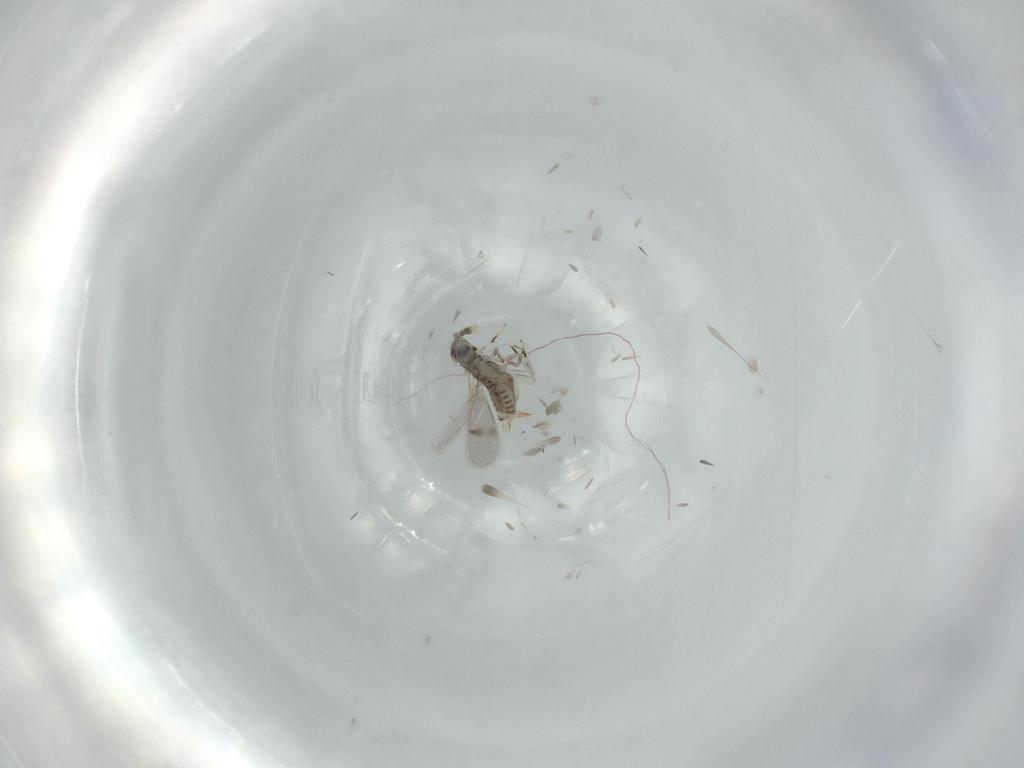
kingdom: Animalia
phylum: Arthropoda
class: Insecta
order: Hymenoptera
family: Aphelinidae
